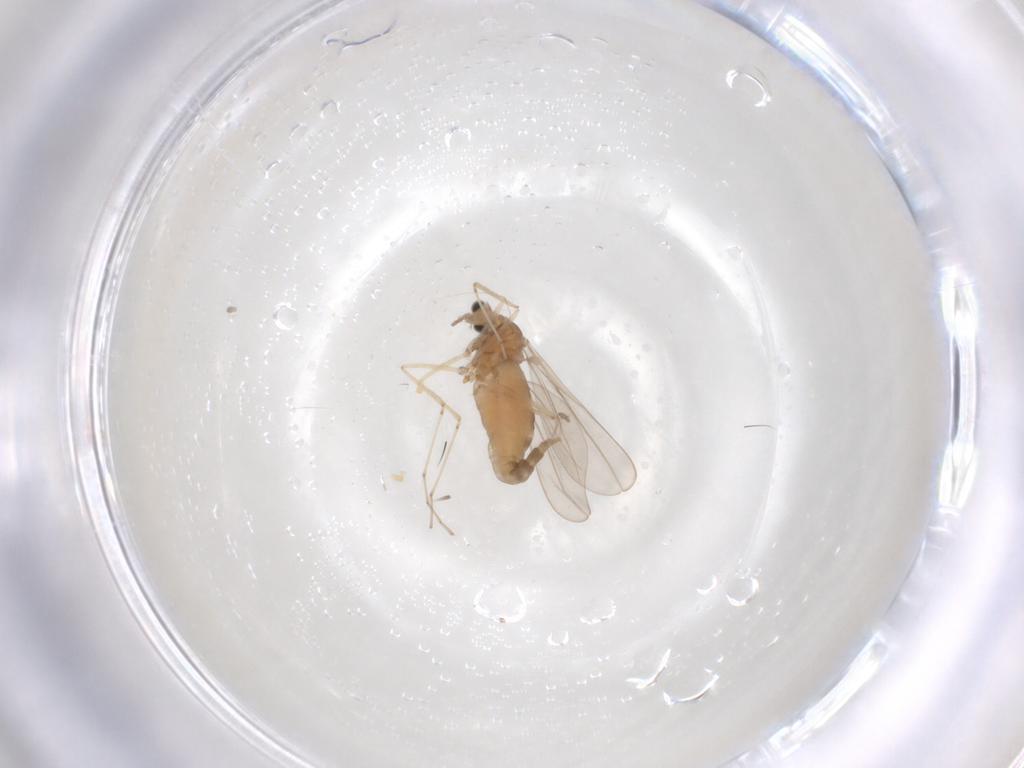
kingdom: Animalia
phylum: Arthropoda
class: Insecta
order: Diptera
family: Cecidomyiidae
